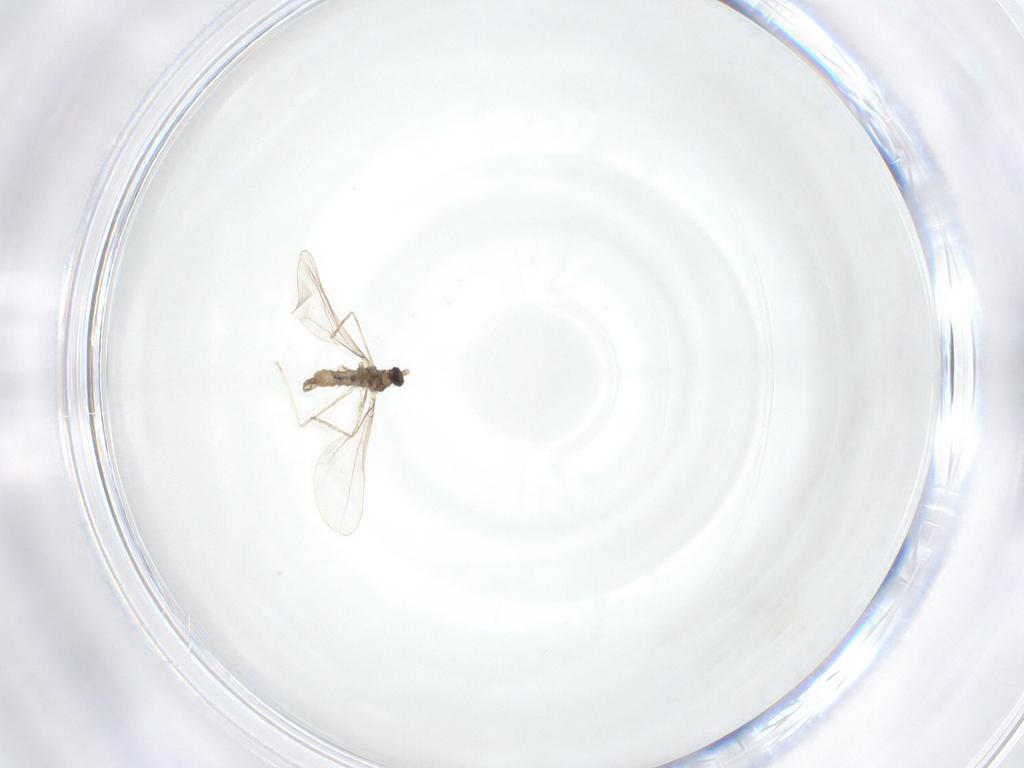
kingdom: Animalia
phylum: Arthropoda
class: Insecta
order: Diptera
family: Cecidomyiidae
